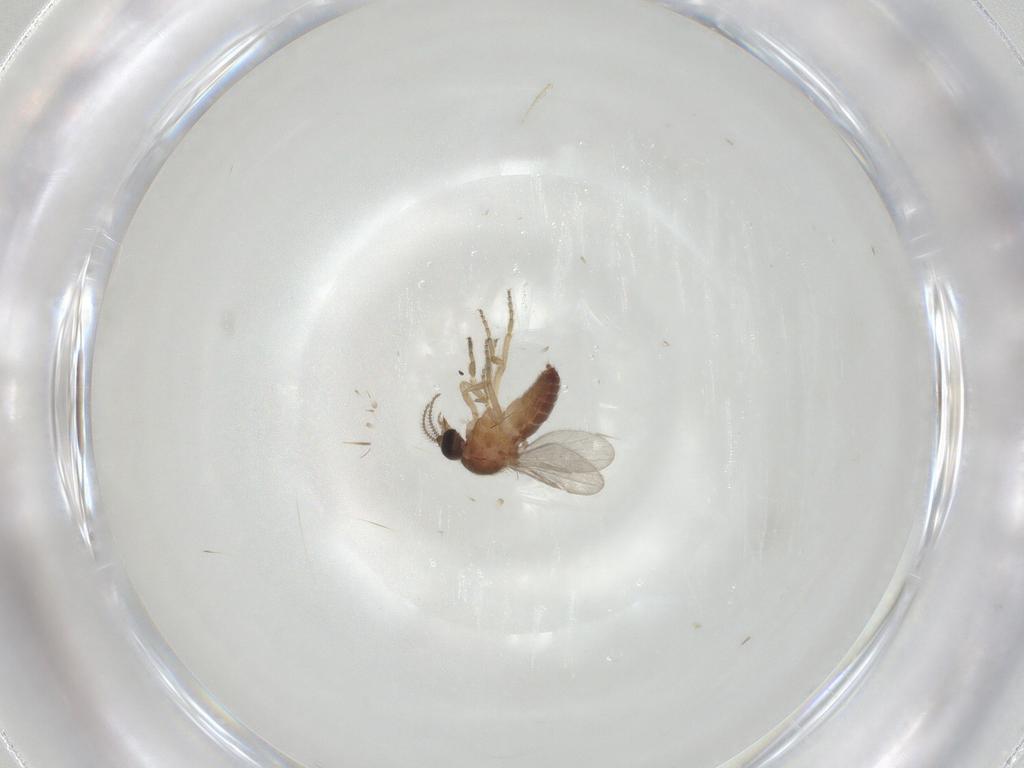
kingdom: Animalia
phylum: Arthropoda
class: Insecta
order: Diptera
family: Ceratopogonidae
